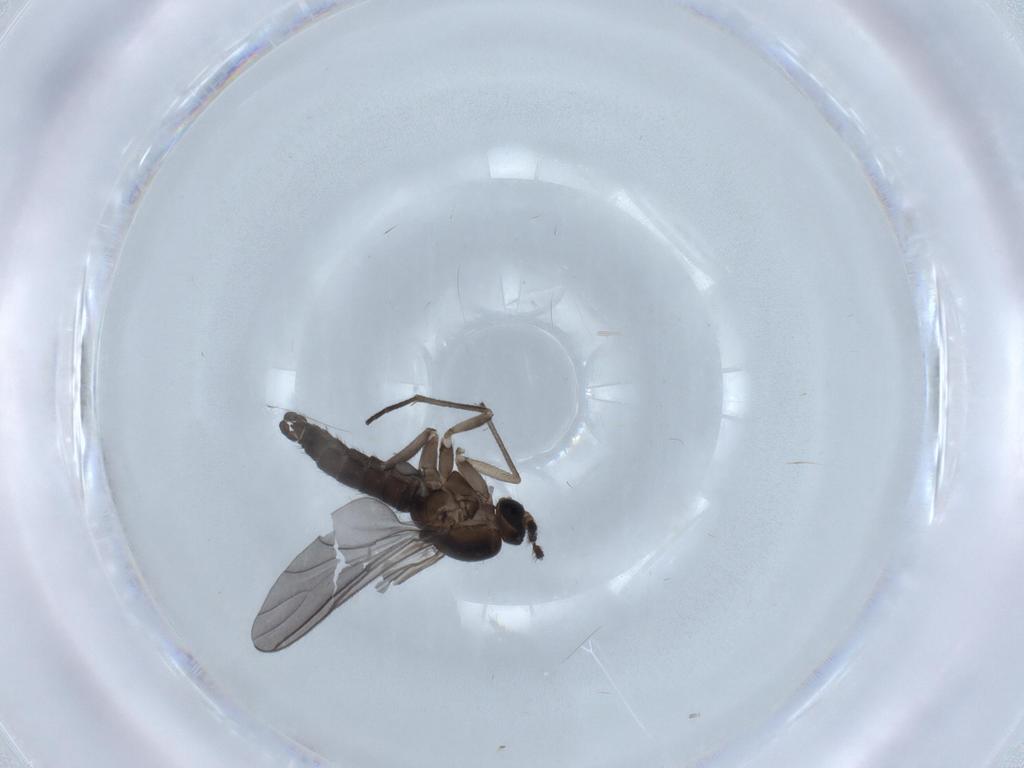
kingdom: Animalia
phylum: Arthropoda
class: Insecta
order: Diptera
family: Sciaridae
